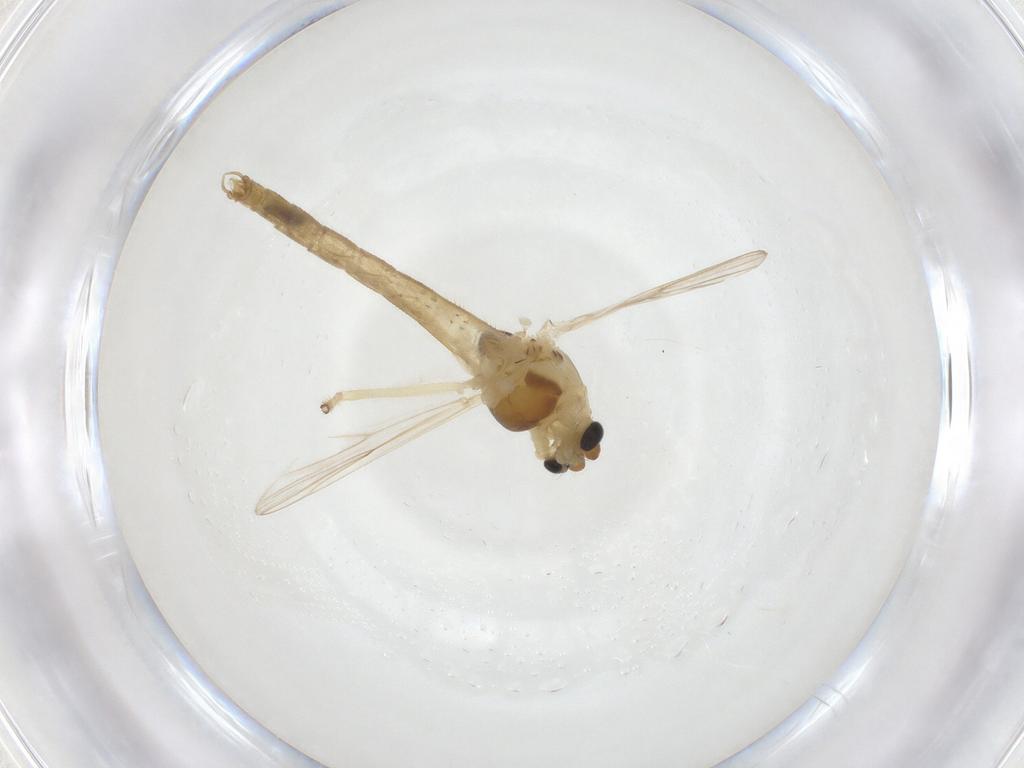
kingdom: Animalia
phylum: Arthropoda
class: Insecta
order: Diptera
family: Chironomidae
